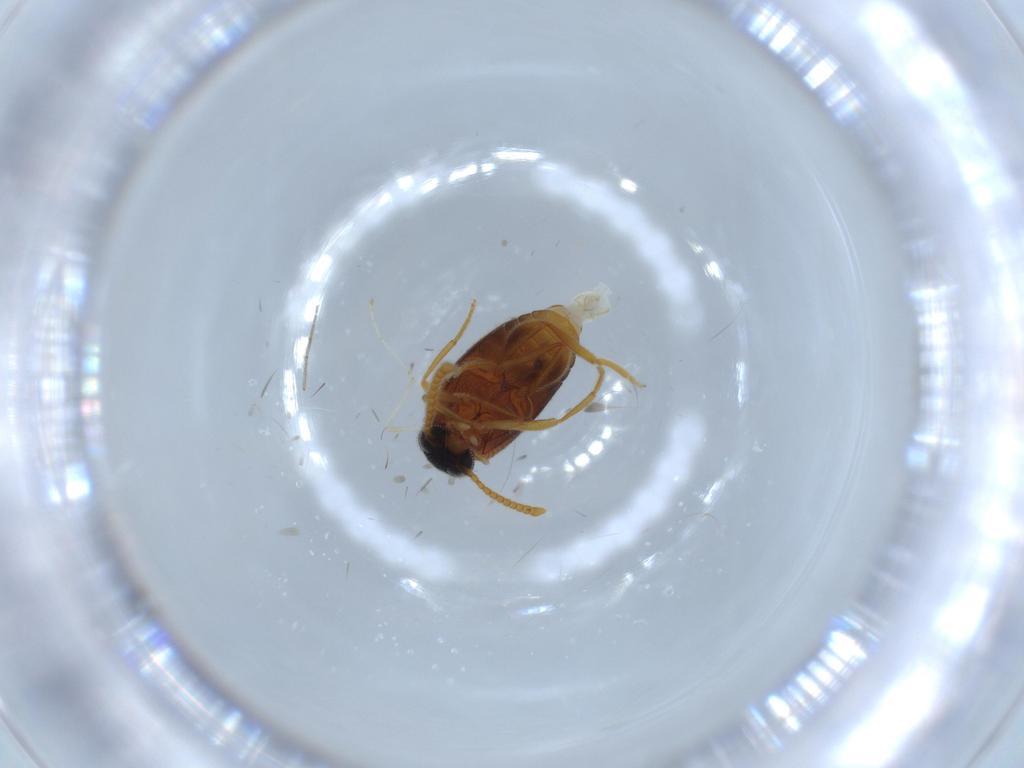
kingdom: Animalia
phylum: Arthropoda
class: Insecta
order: Coleoptera
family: Aderidae
